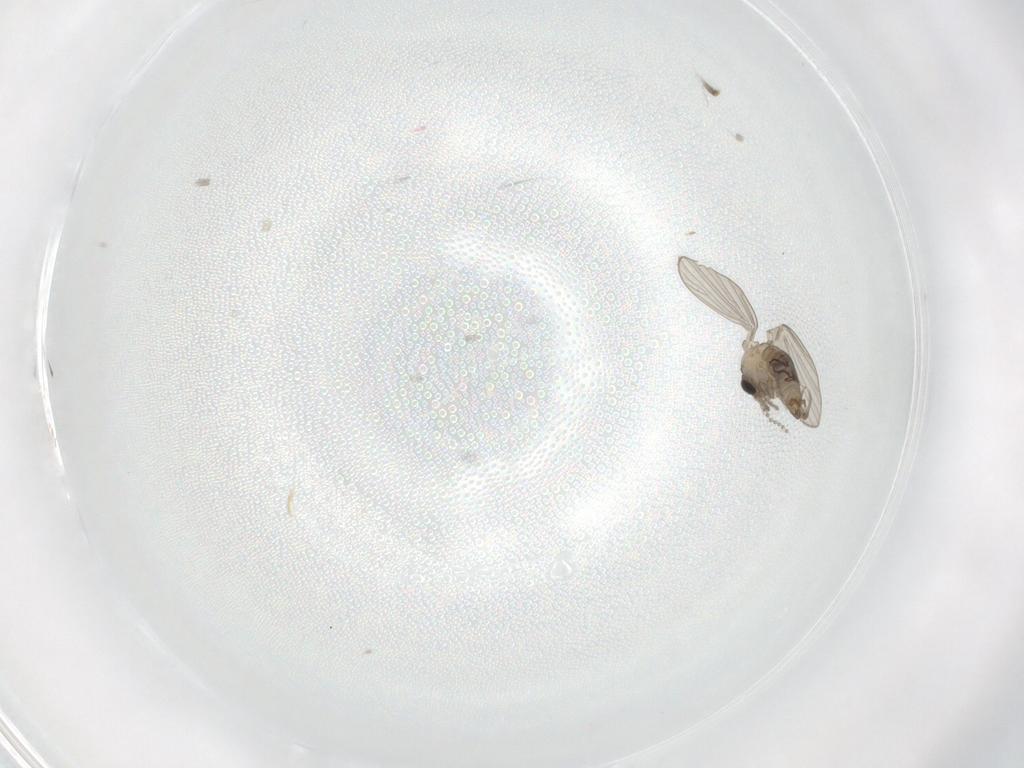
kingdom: Animalia
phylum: Arthropoda
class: Insecta
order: Diptera
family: Psychodidae
